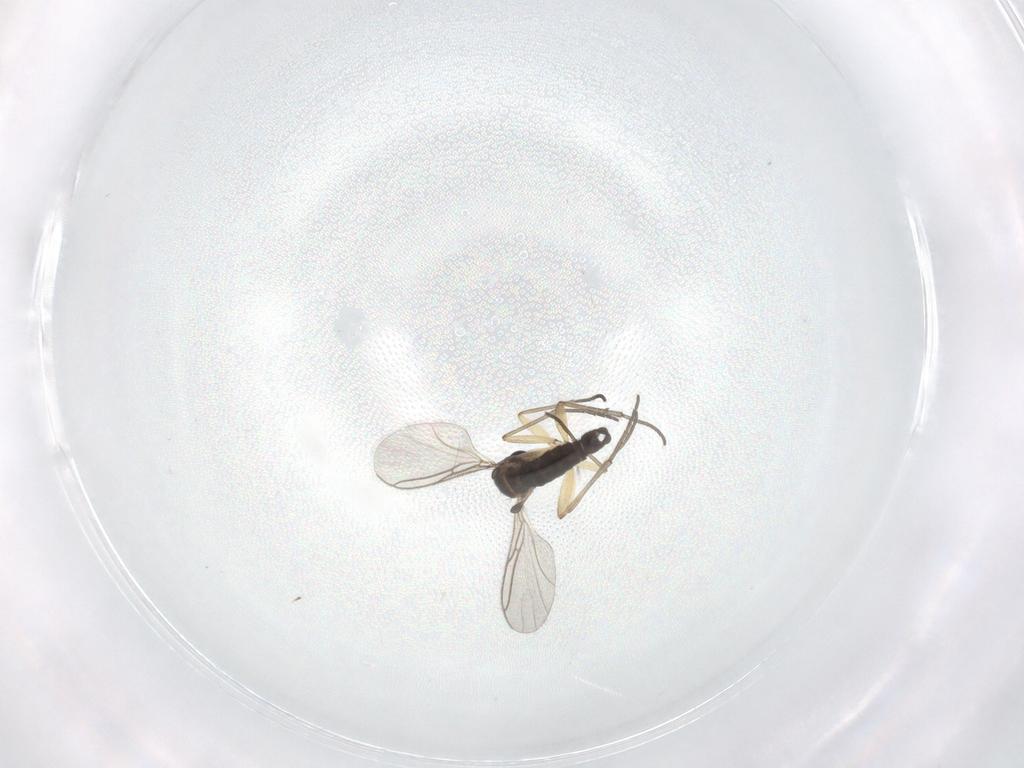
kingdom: Animalia
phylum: Arthropoda
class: Insecta
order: Diptera
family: Sciaridae
